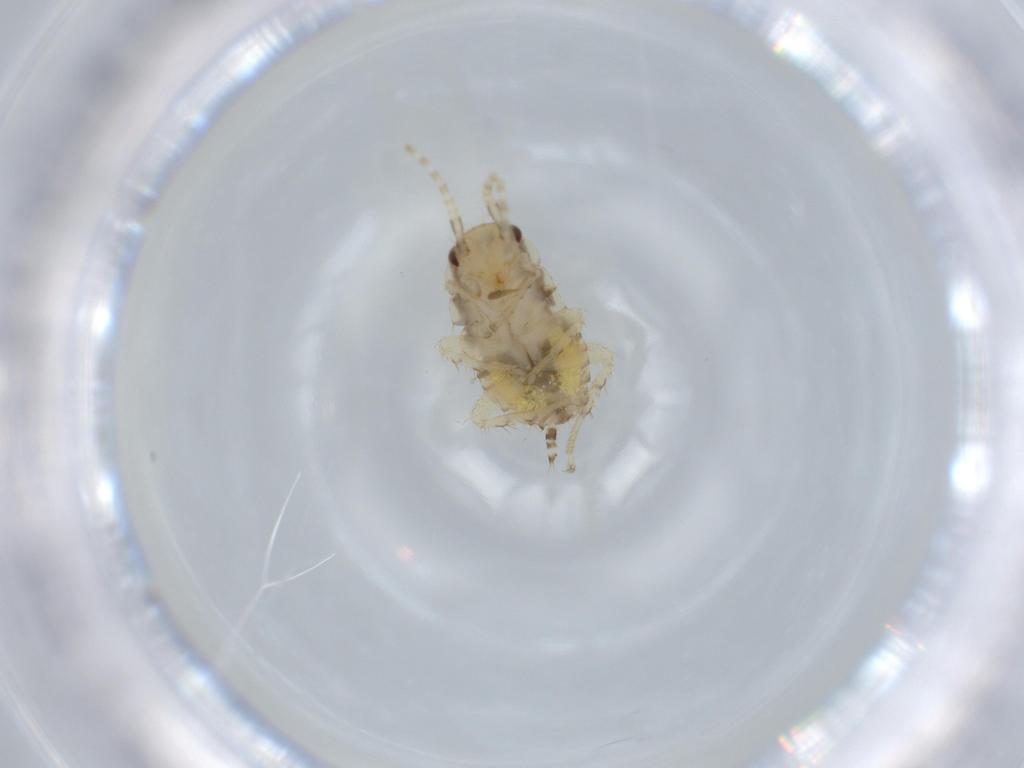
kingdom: Animalia
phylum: Arthropoda
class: Insecta
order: Blattodea
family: Ectobiidae
